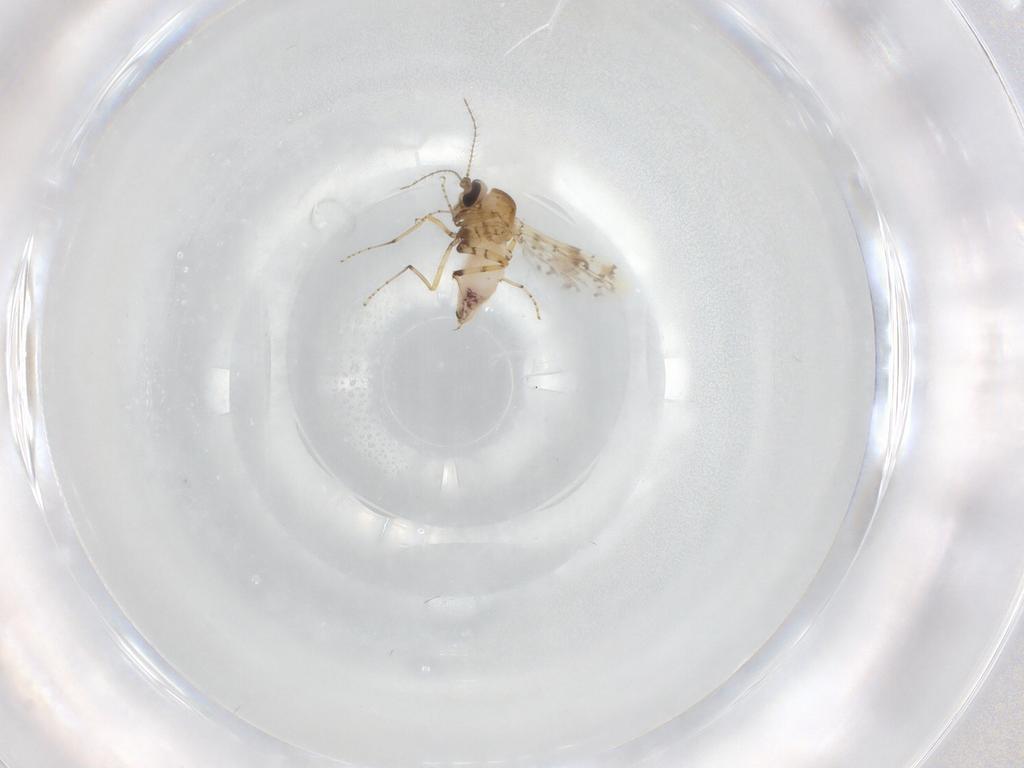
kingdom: Animalia
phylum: Arthropoda
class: Insecta
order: Diptera
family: Ceratopogonidae
